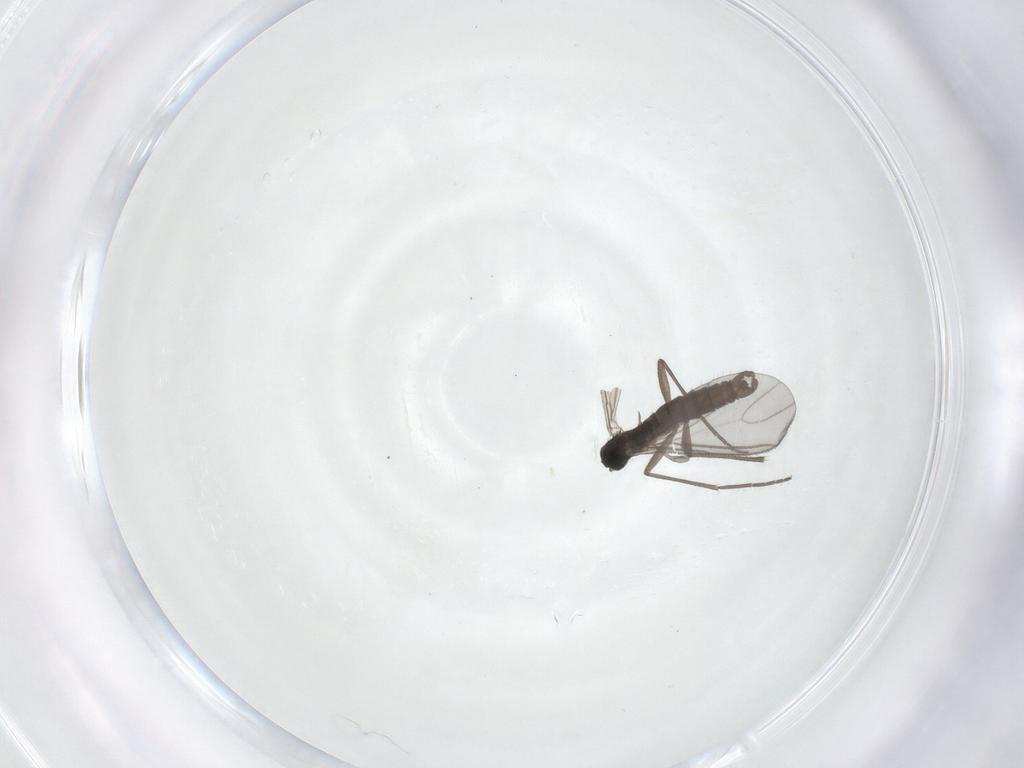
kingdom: Animalia
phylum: Arthropoda
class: Insecta
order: Diptera
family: Sciaridae
